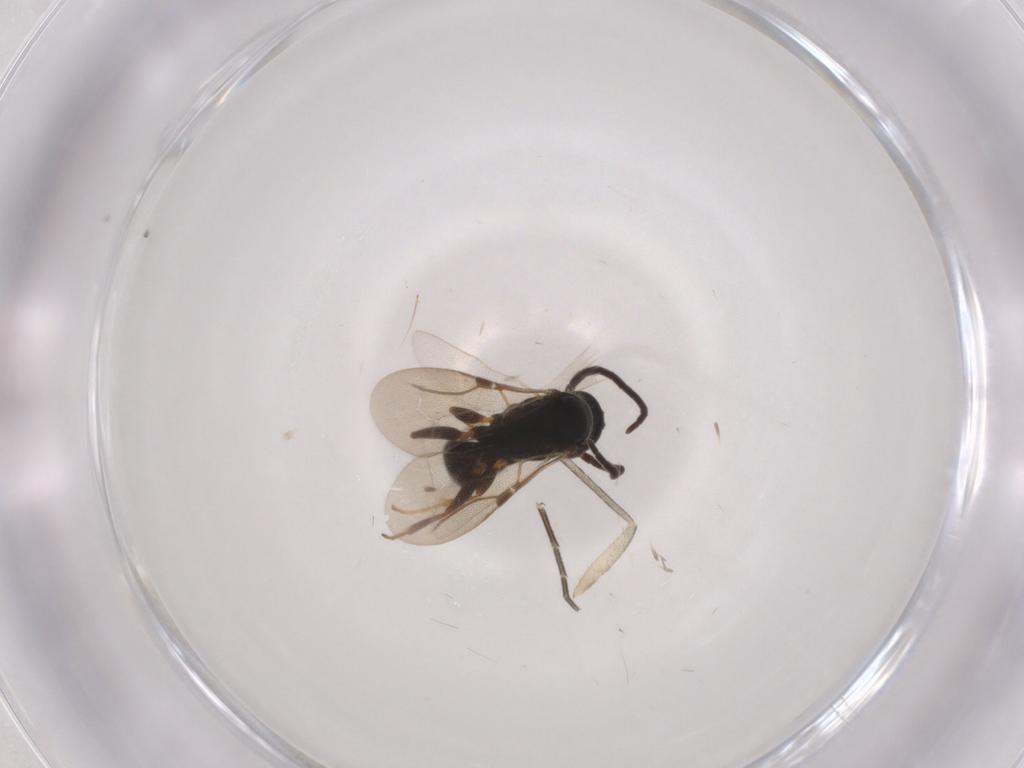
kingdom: Animalia
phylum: Arthropoda
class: Insecta
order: Hymenoptera
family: Bethylidae
